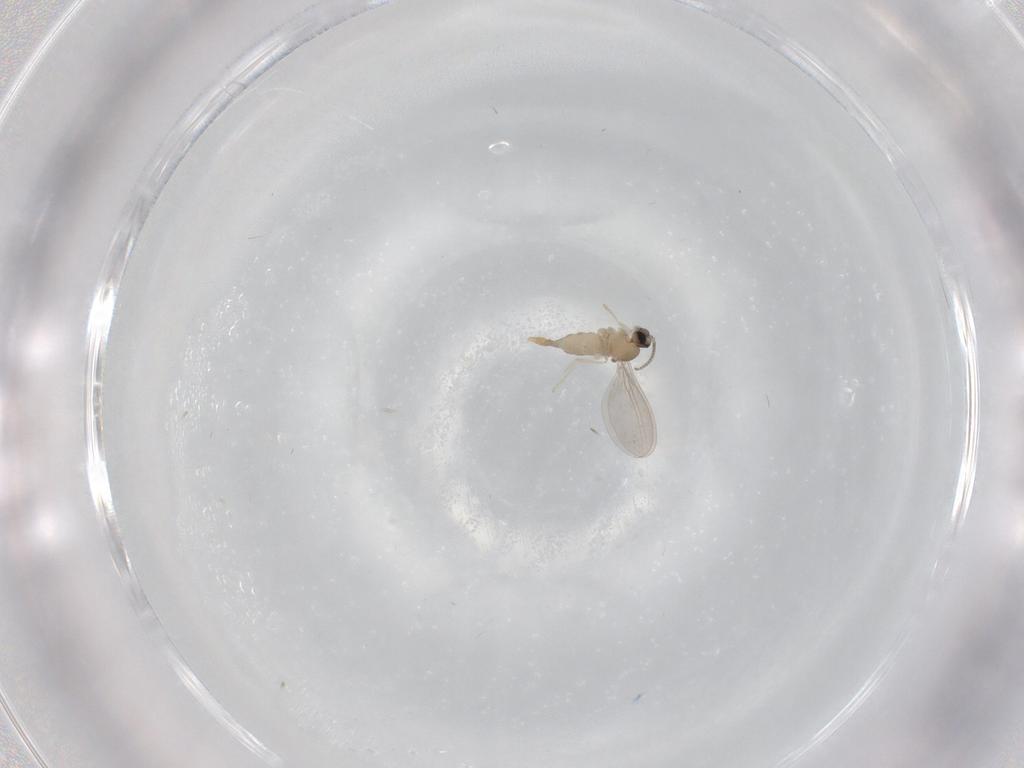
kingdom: Animalia
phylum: Arthropoda
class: Insecta
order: Diptera
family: Cecidomyiidae
